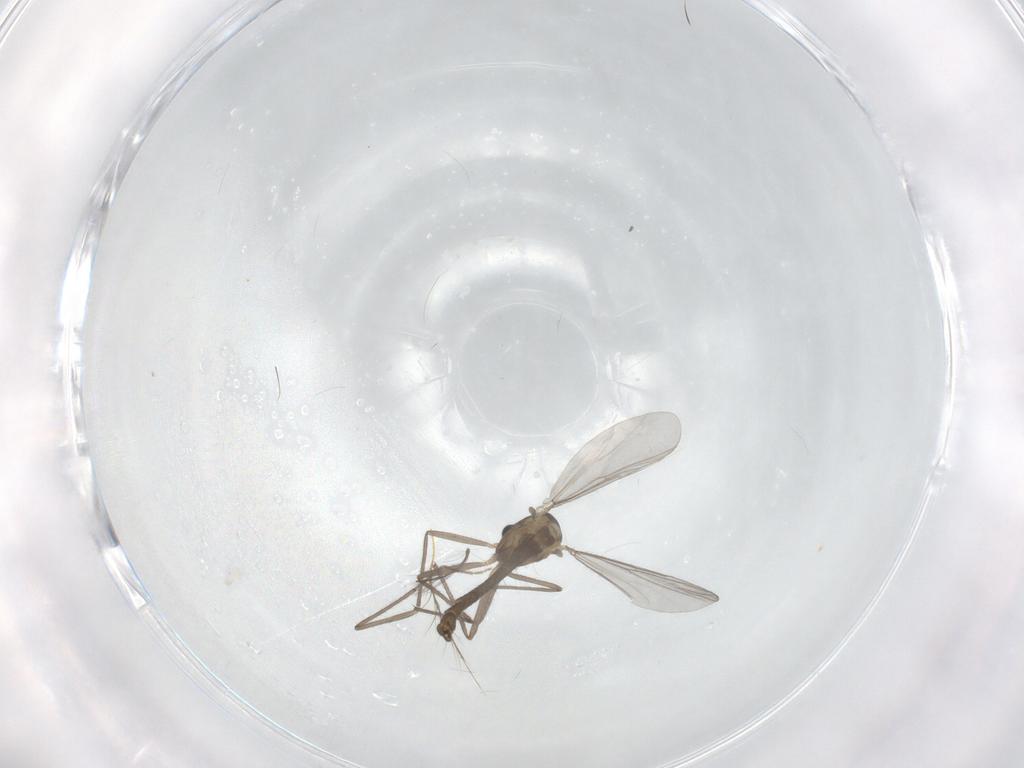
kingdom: Animalia
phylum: Arthropoda
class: Insecta
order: Diptera
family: Chironomidae
